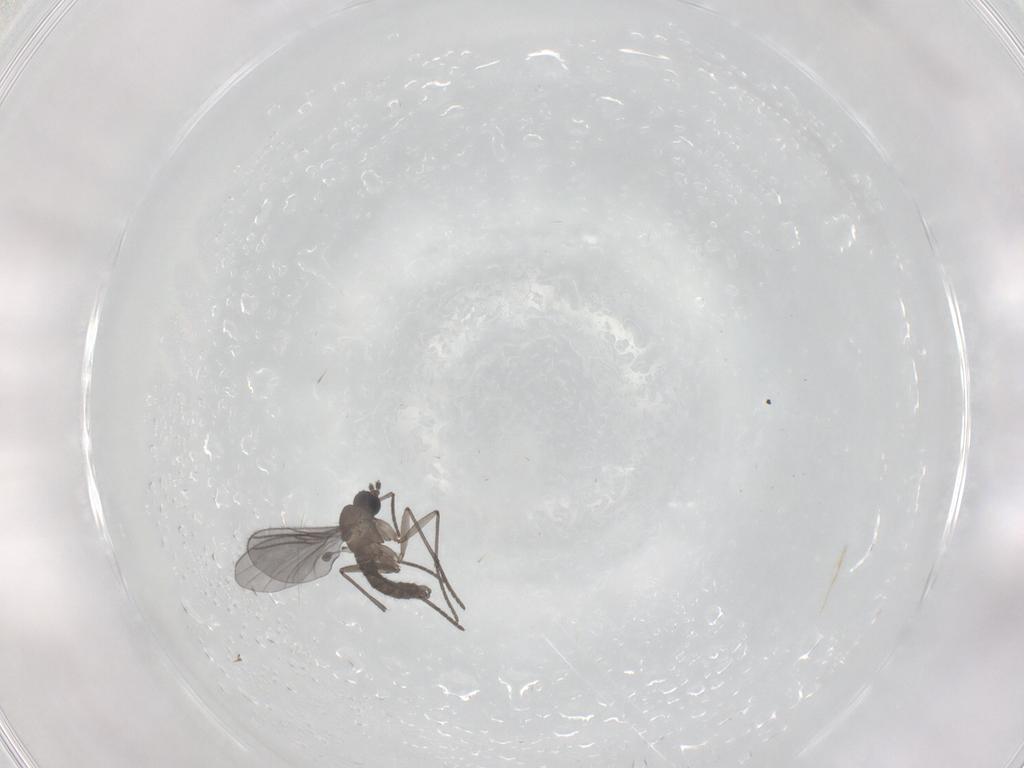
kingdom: Animalia
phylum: Arthropoda
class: Insecta
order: Diptera
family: Chironomidae
